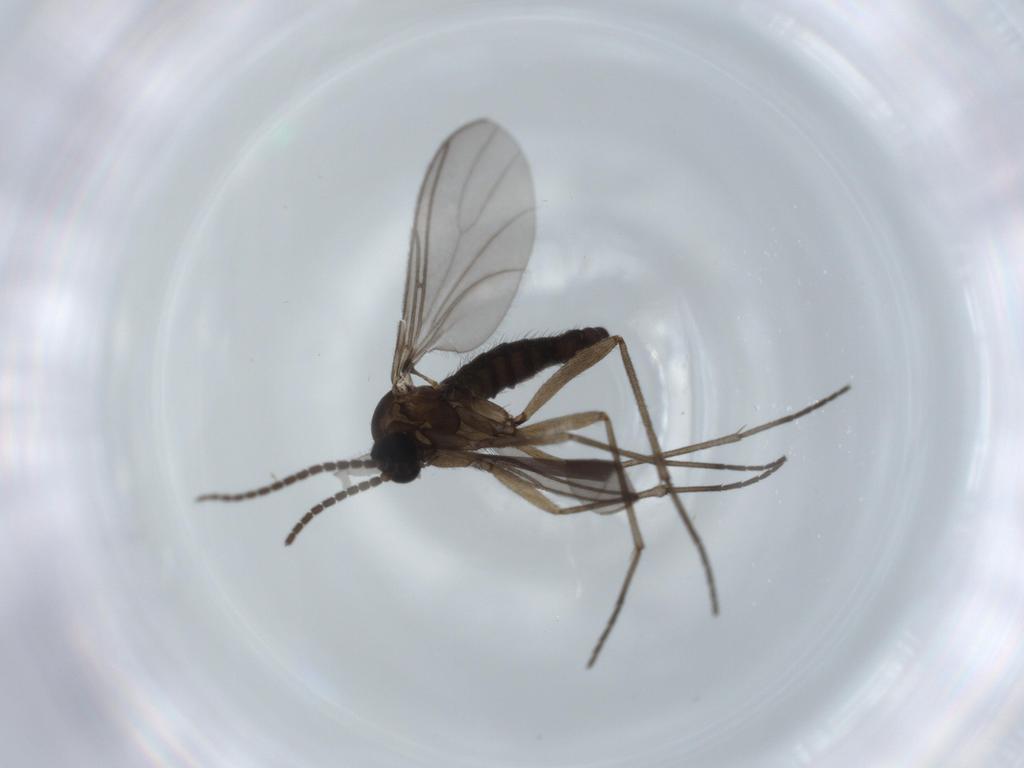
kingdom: Animalia
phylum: Arthropoda
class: Insecta
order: Diptera
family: Sciaridae
